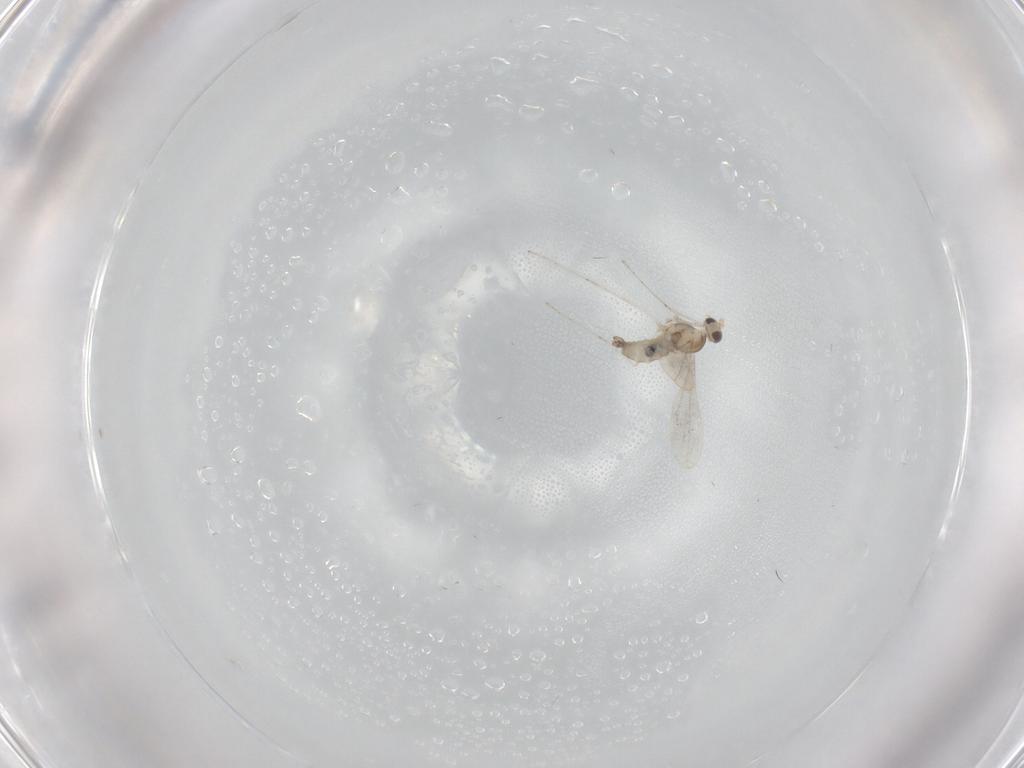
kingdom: Animalia
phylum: Arthropoda
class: Insecta
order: Diptera
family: Cecidomyiidae
